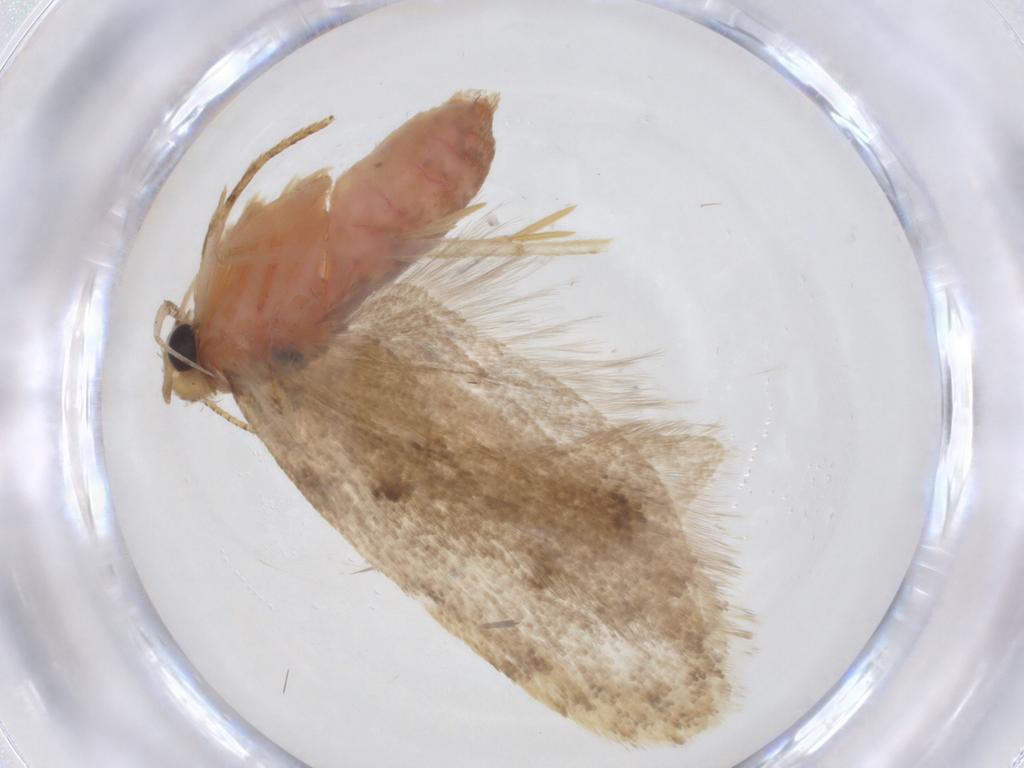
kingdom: Animalia
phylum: Arthropoda
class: Insecta
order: Lepidoptera
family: Autostichidae
